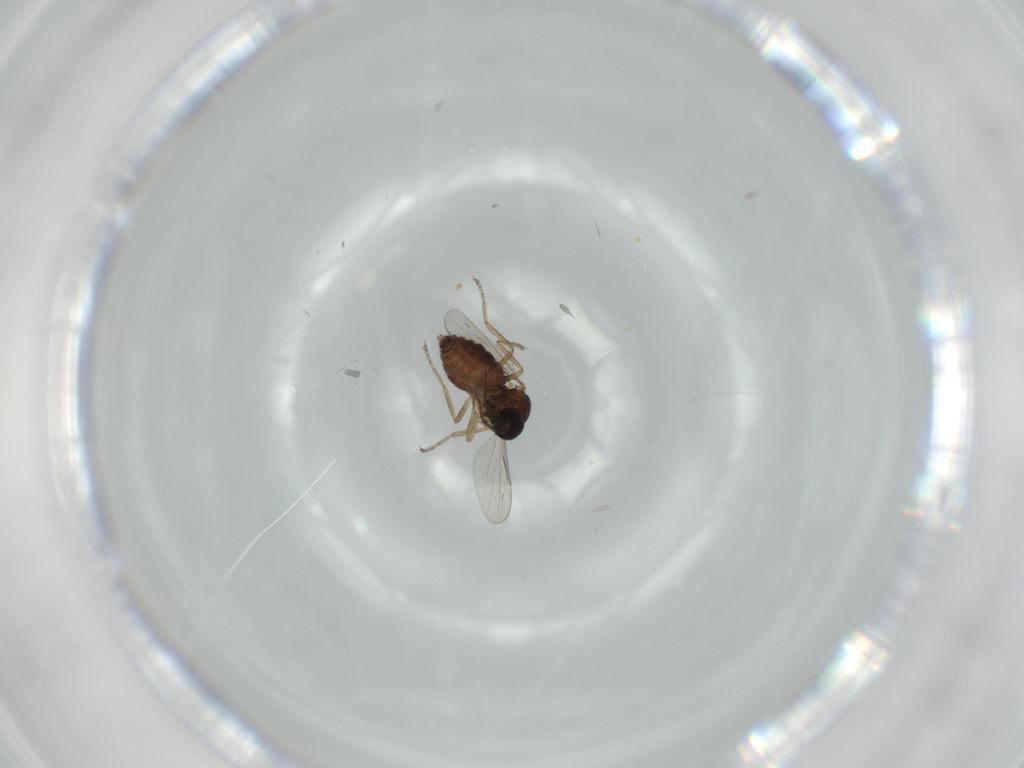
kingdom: Animalia
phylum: Arthropoda
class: Insecta
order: Diptera
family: Ceratopogonidae
